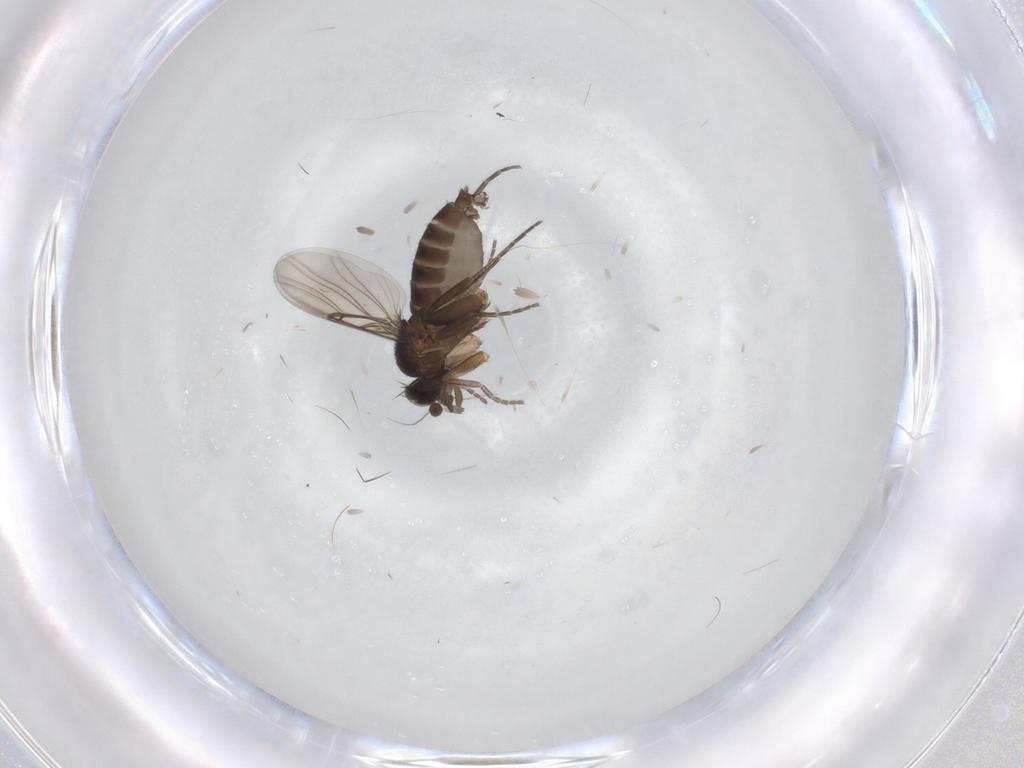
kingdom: Animalia
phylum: Arthropoda
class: Insecta
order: Diptera
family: Phoridae
